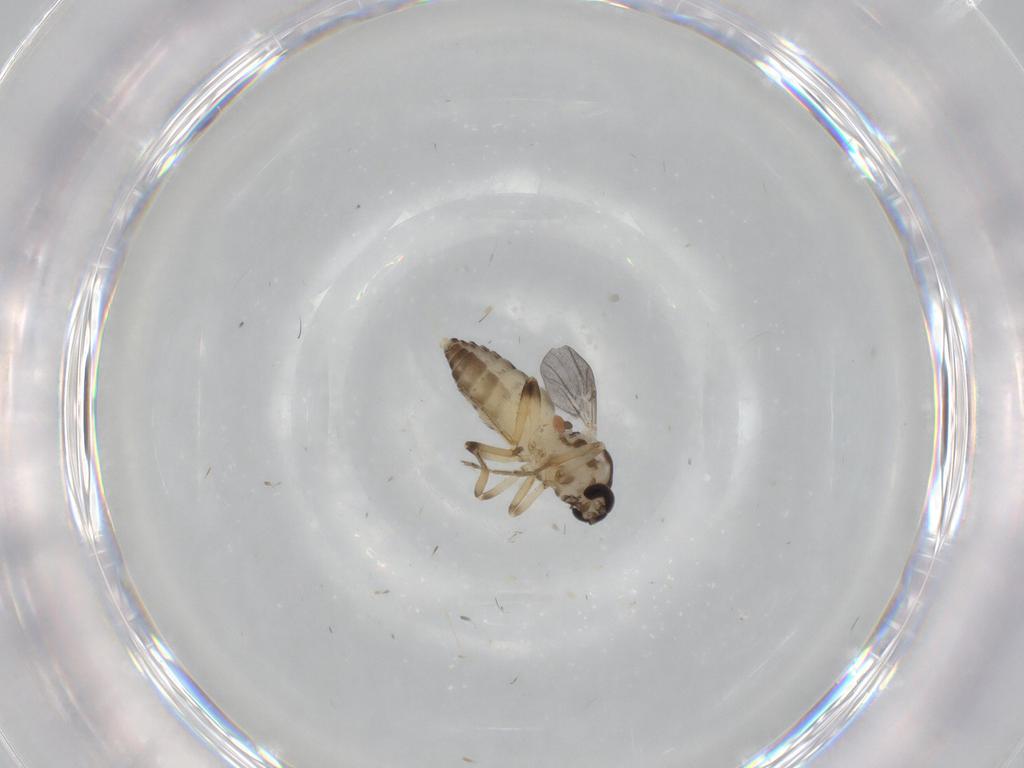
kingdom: Animalia
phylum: Arthropoda
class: Insecta
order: Diptera
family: Ceratopogonidae
